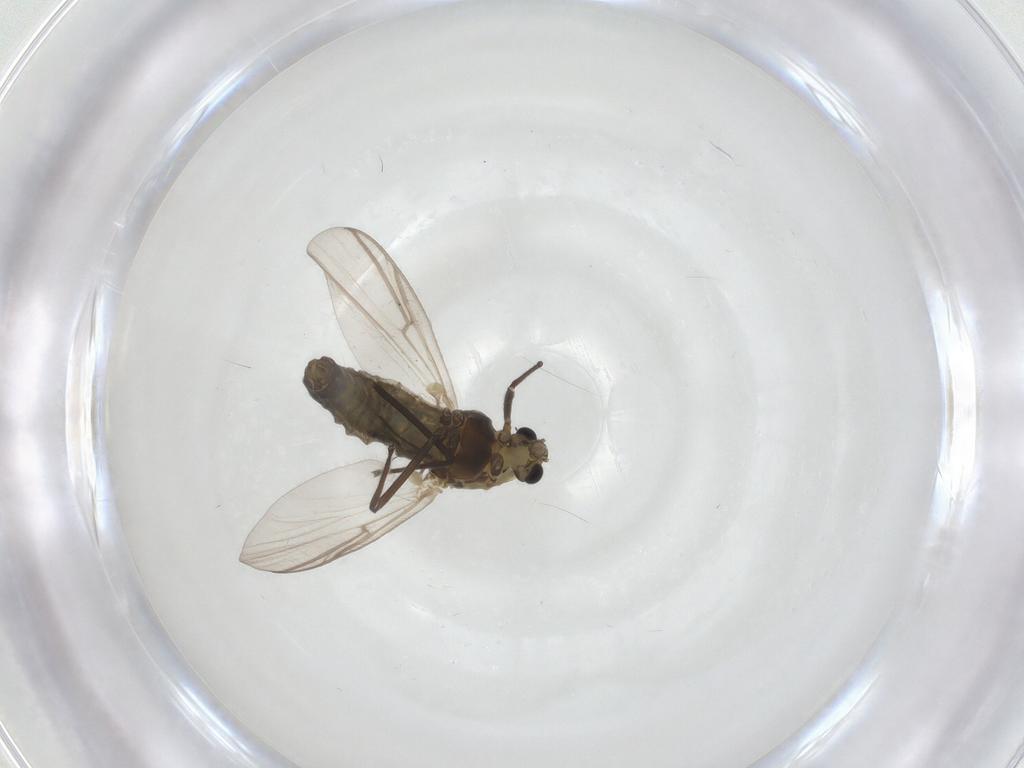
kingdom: Animalia
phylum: Arthropoda
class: Insecta
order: Diptera
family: Chironomidae
